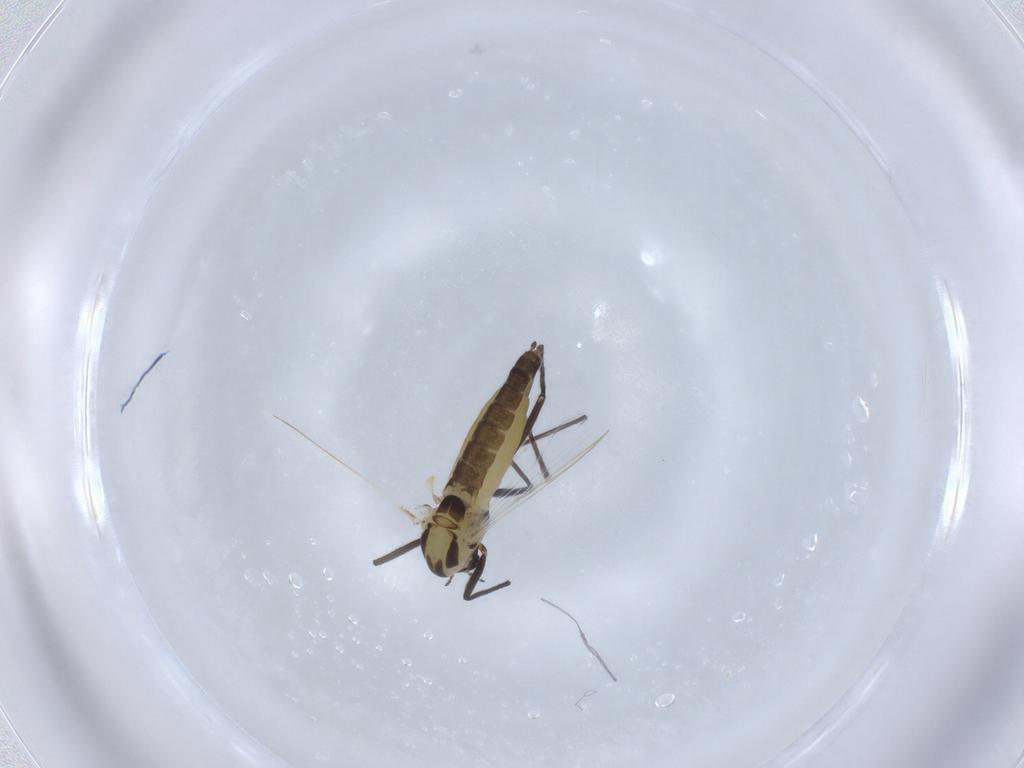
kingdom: Animalia
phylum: Arthropoda
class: Insecta
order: Diptera
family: Chironomidae
